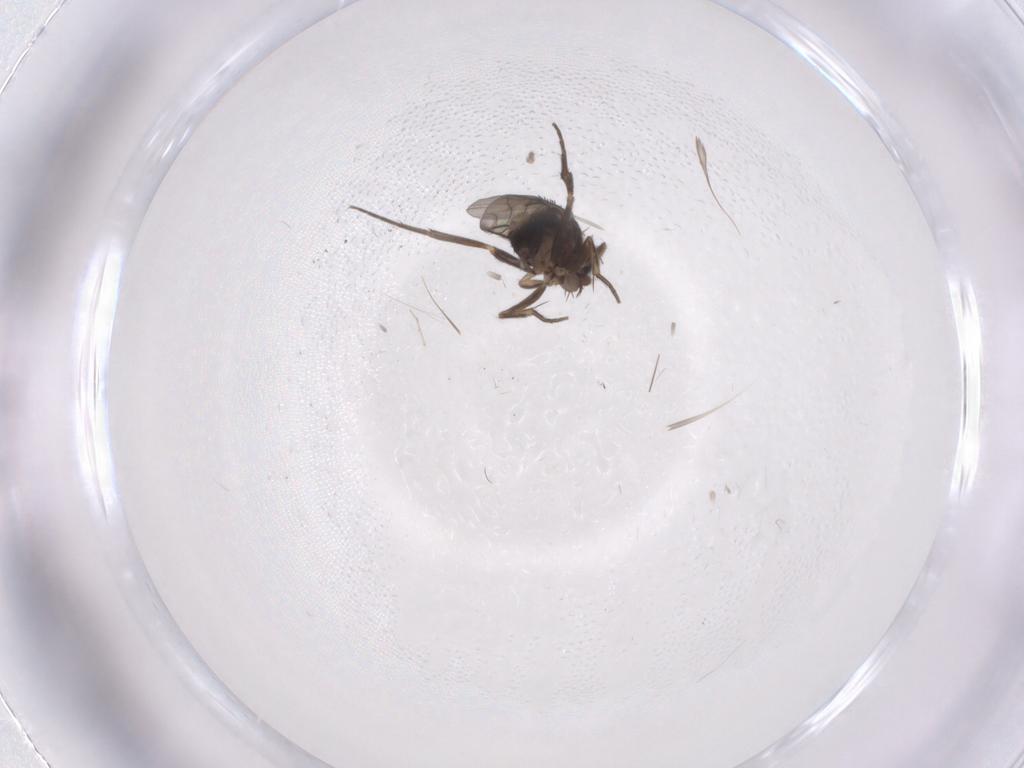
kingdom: Animalia
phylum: Arthropoda
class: Insecta
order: Diptera
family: Phoridae
